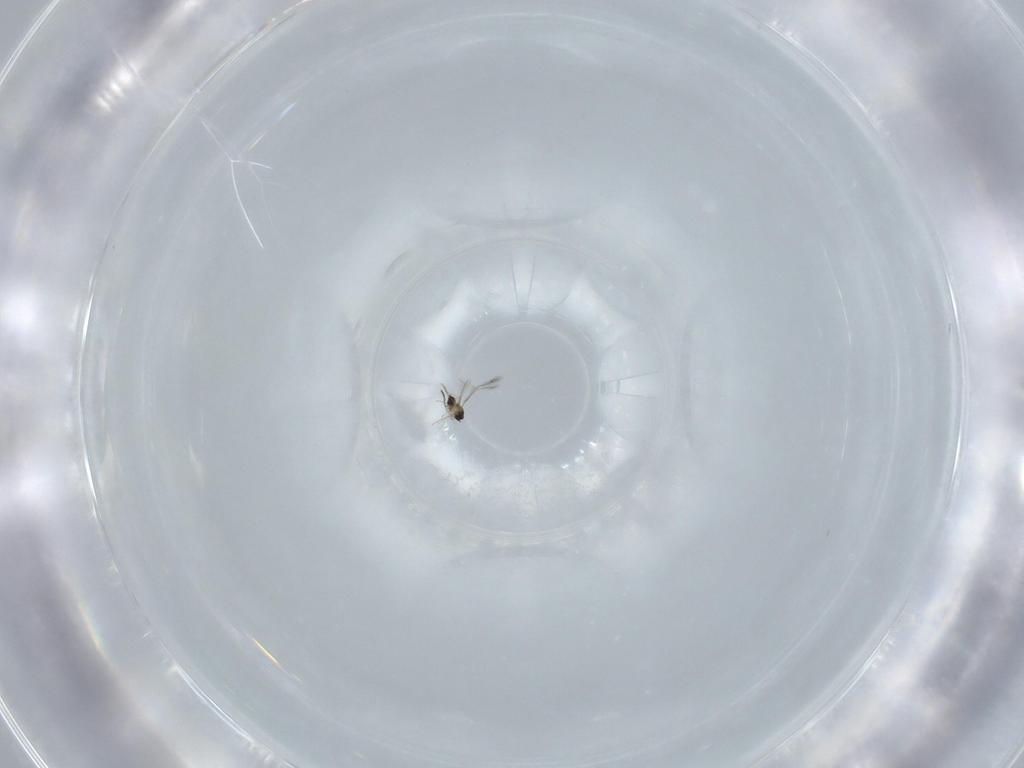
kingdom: Animalia
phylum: Arthropoda
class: Insecta
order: Hymenoptera
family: Mymaridae
